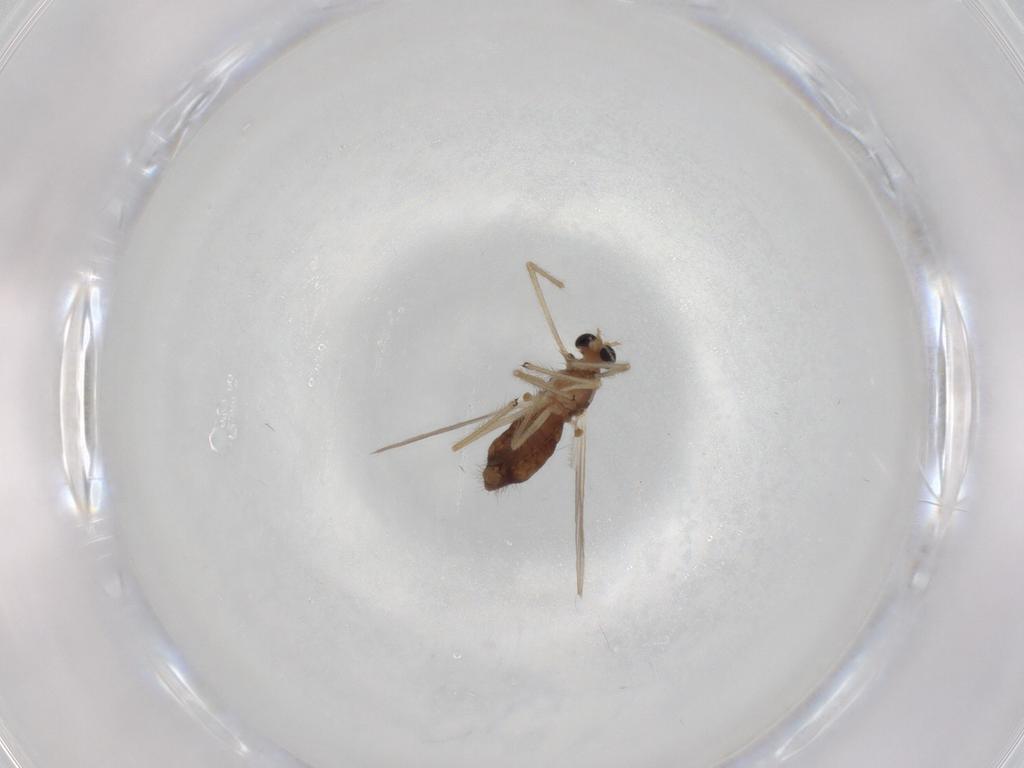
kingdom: Animalia
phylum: Arthropoda
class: Insecta
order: Diptera
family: Chironomidae
